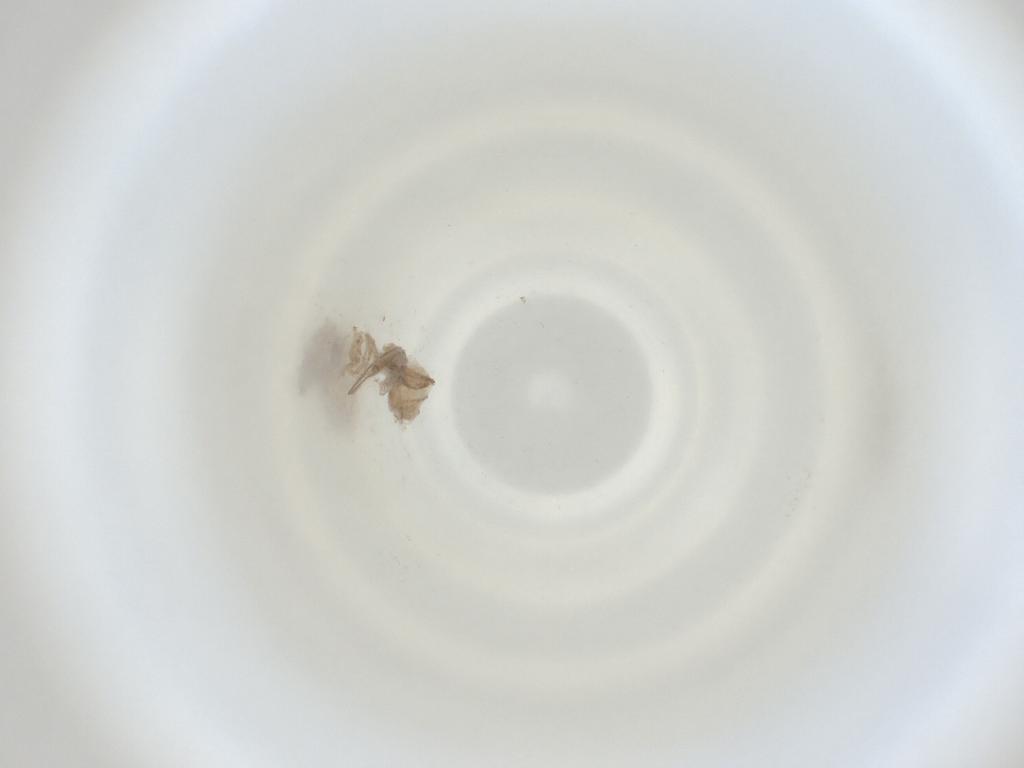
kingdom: Animalia
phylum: Arthropoda
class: Insecta
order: Diptera
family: Cecidomyiidae
